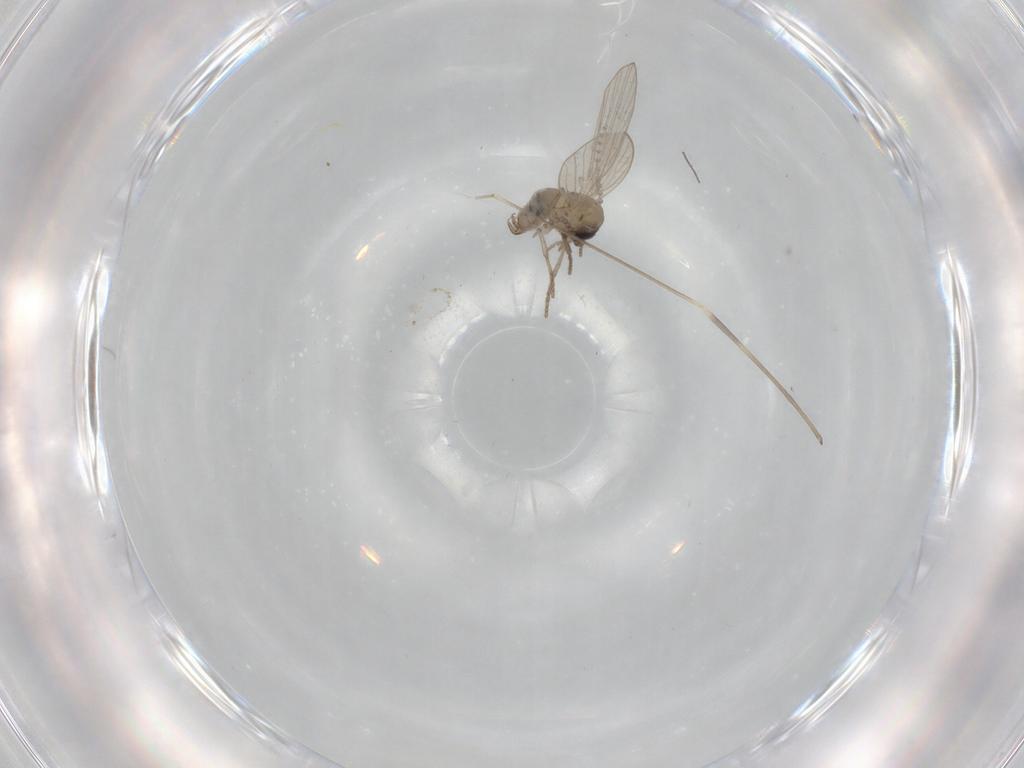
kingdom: Animalia
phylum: Arthropoda
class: Insecta
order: Diptera
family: Psychodidae
